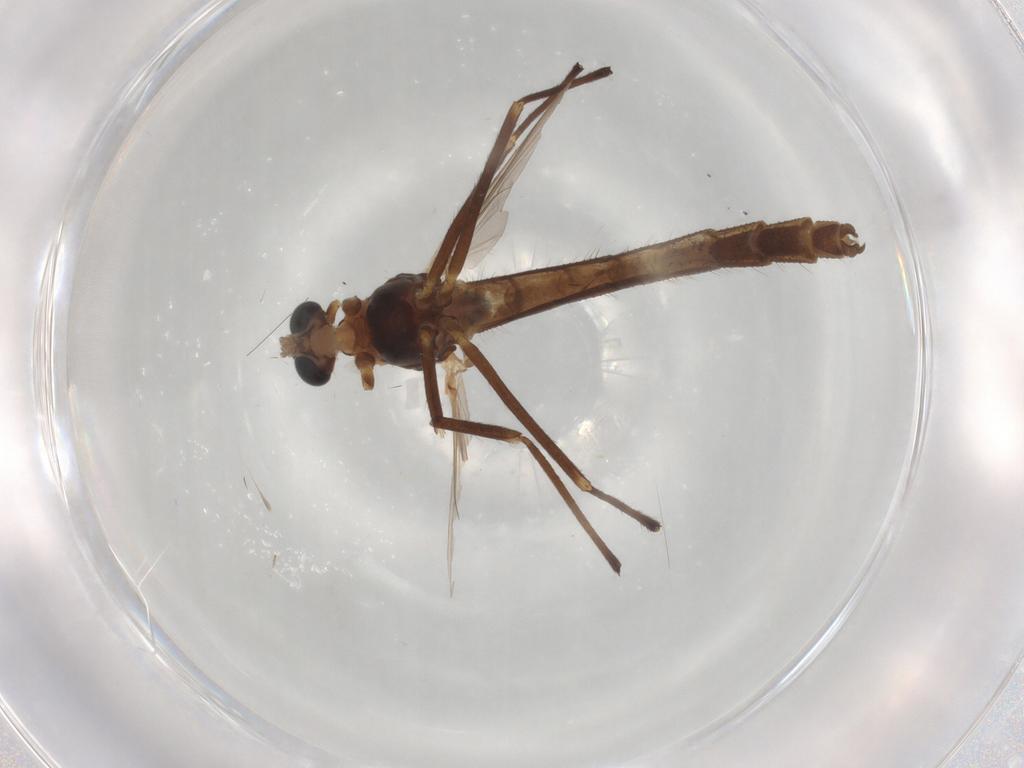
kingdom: Animalia
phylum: Arthropoda
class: Insecta
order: Diptera
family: Chironomidae
